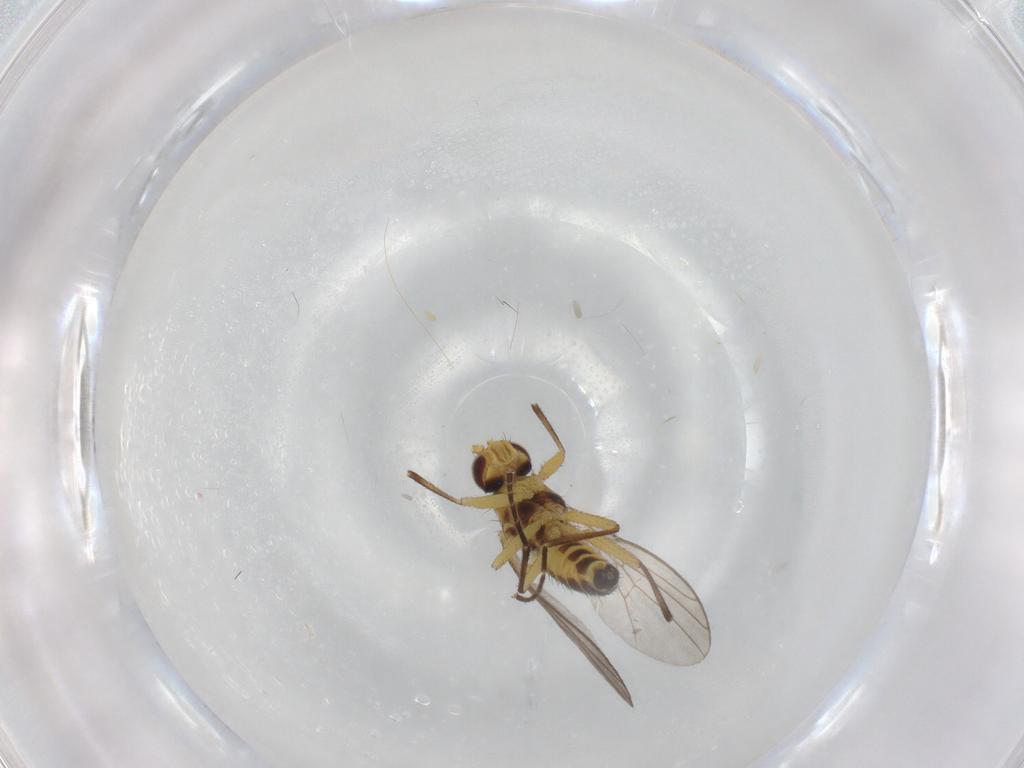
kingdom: Animalia
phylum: Arthropoda
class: Insecta
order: Diptera
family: Agromyzidae
